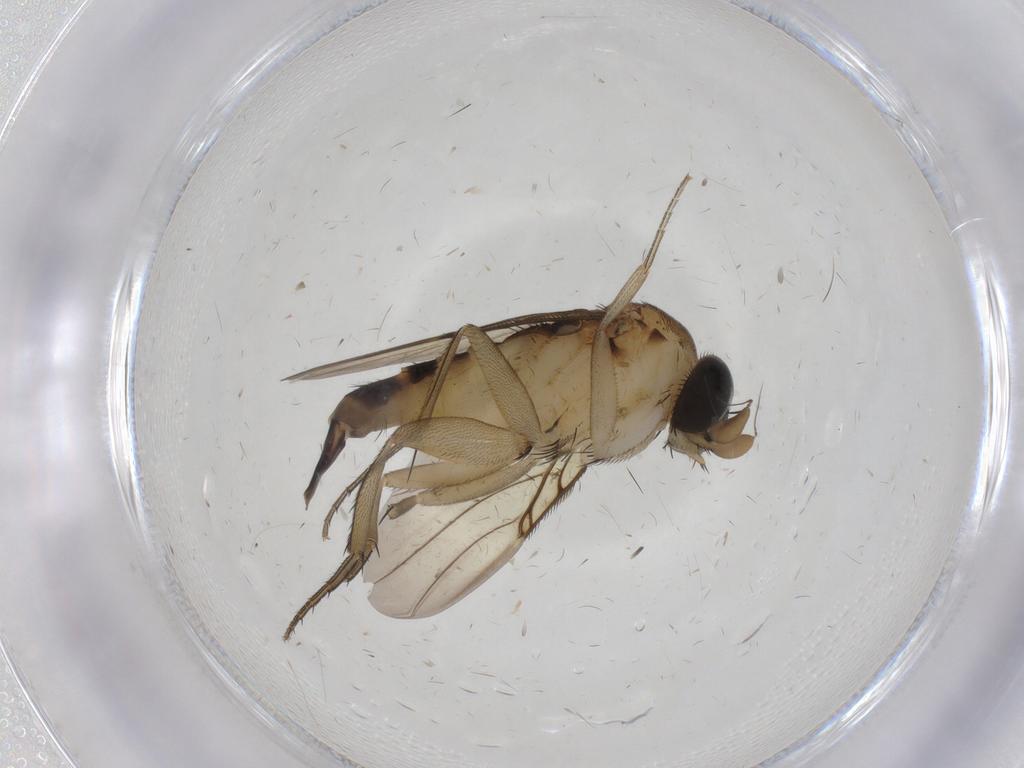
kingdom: Animalia
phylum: Arthropoda
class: Insecta
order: Diptera
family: Phoridae
